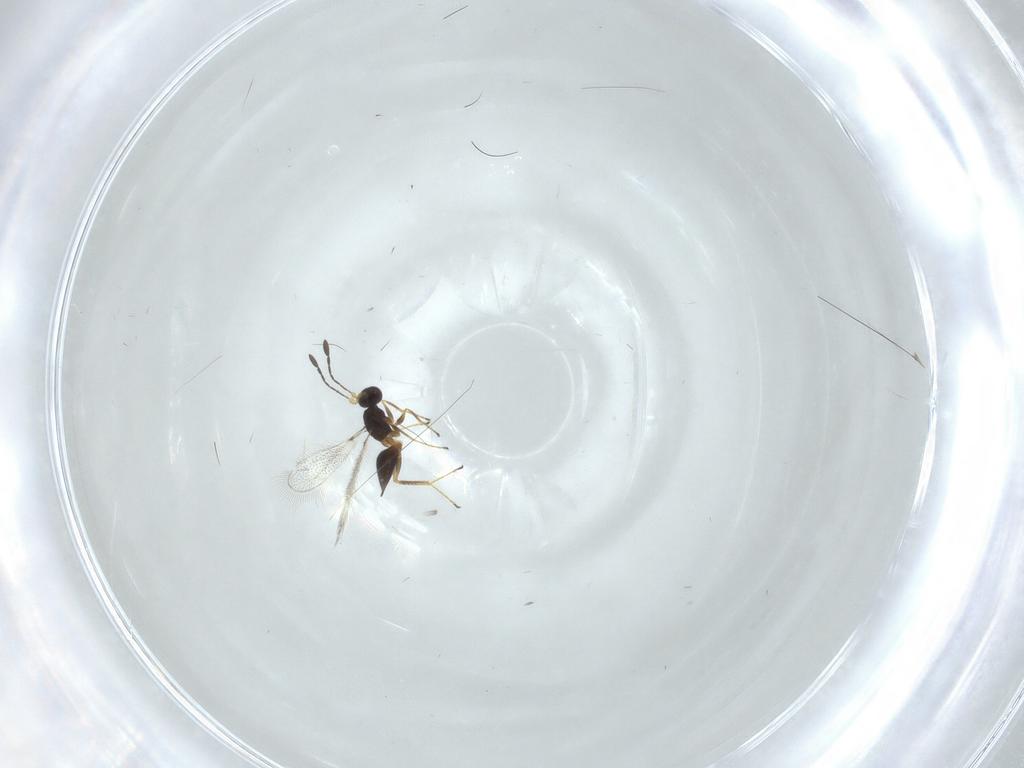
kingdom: Animalia
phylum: Arthropoda
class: Insecta
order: Hymenoptera
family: Mymaridae
